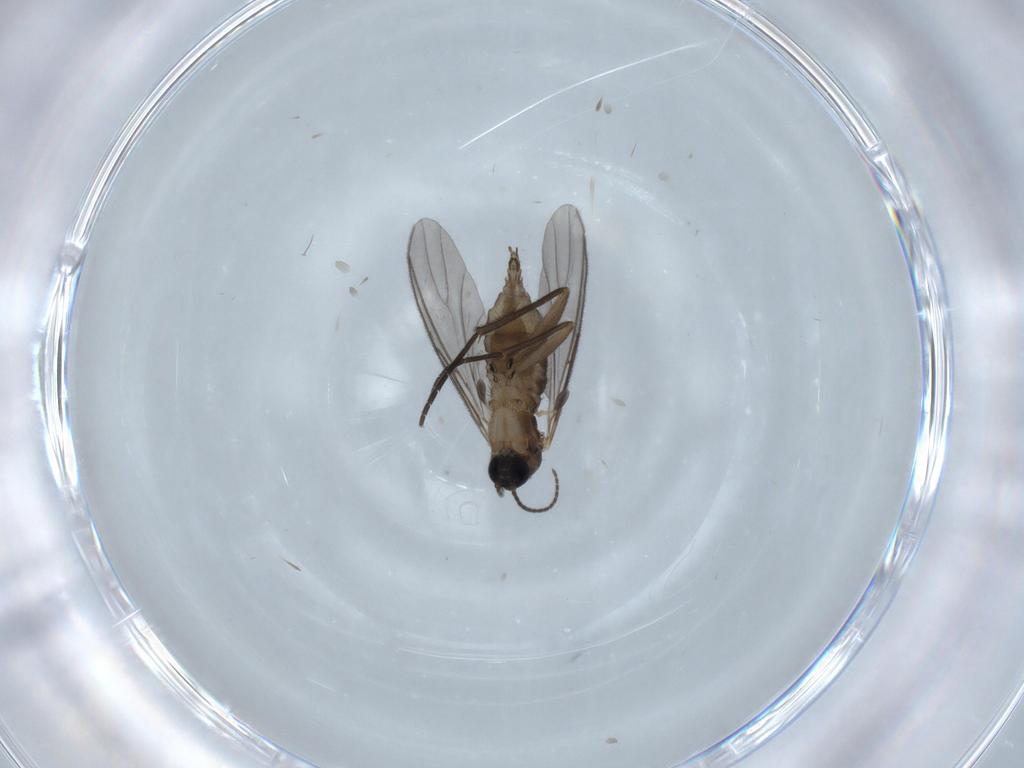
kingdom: Animalia
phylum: Arthropoda
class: Insecta
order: Diptera
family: Sciaridae
